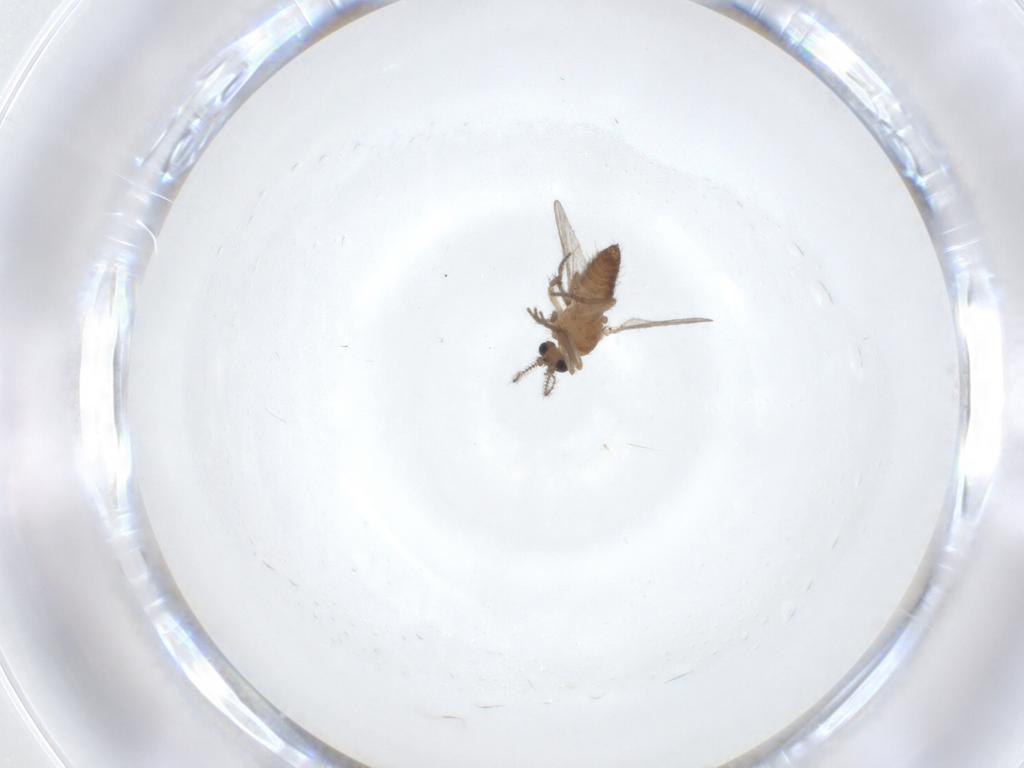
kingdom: Animalia
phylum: Arthropoda
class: Insecta
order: Diptera
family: Ceratopogonidae
